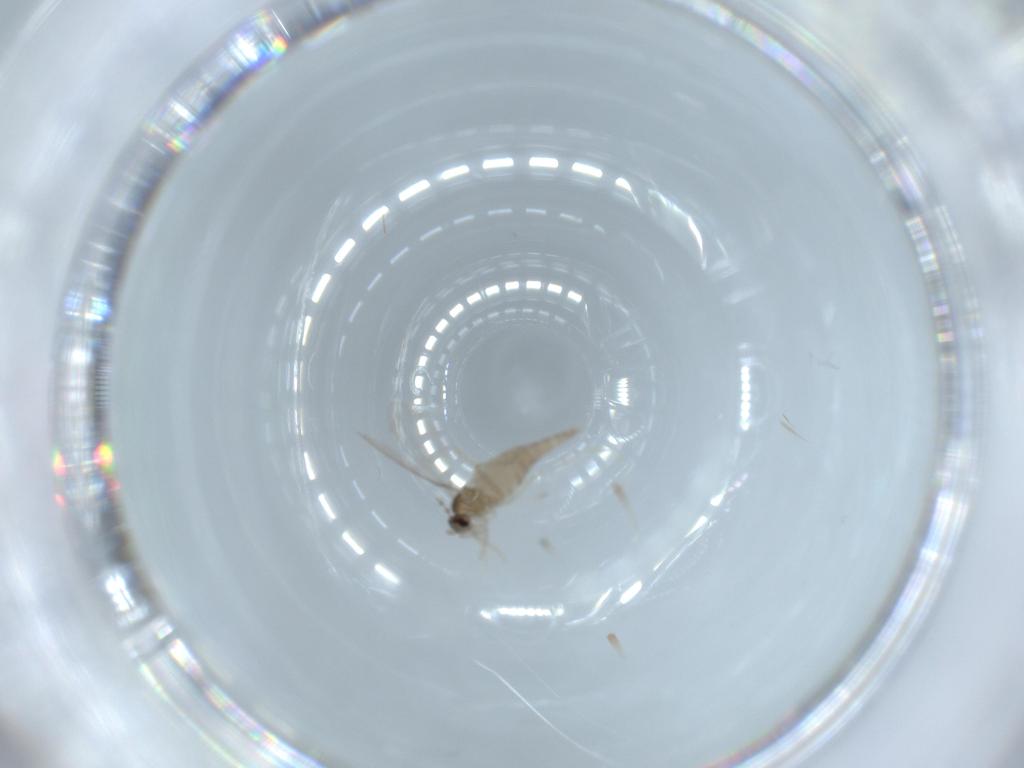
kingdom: Animalia
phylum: Arthropoda
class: Insecta
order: Diptera
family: Cecidomyiidae
